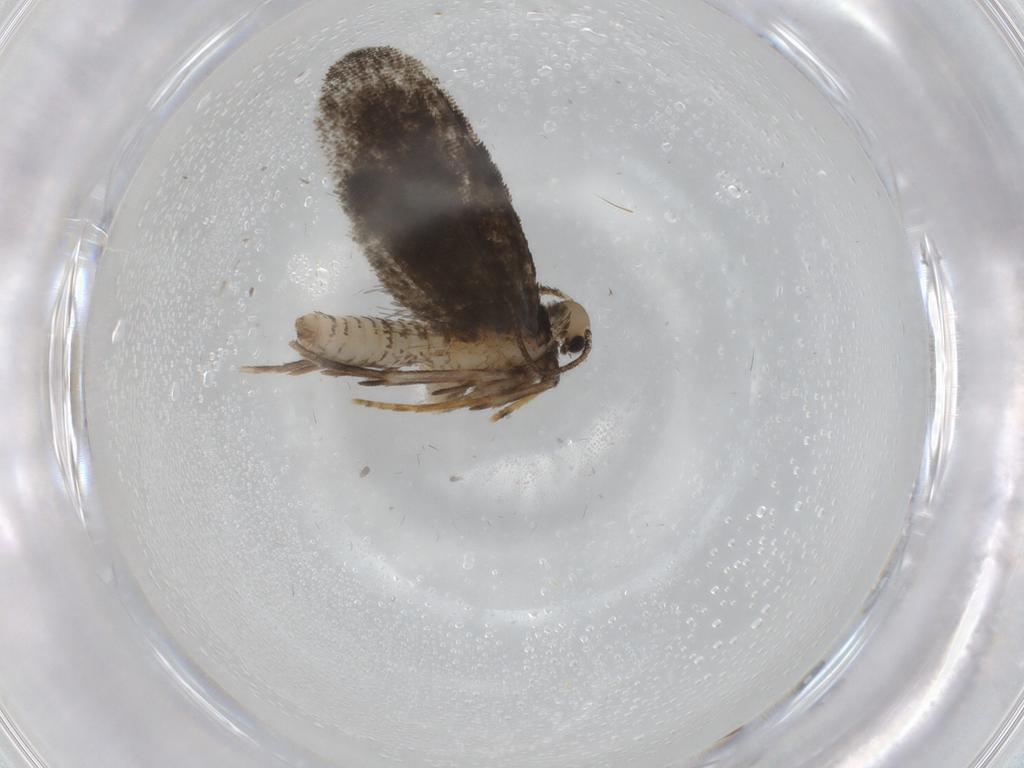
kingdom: Animalia
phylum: Arthropoda
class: Insecta
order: Lepidoptera
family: Psychidae
